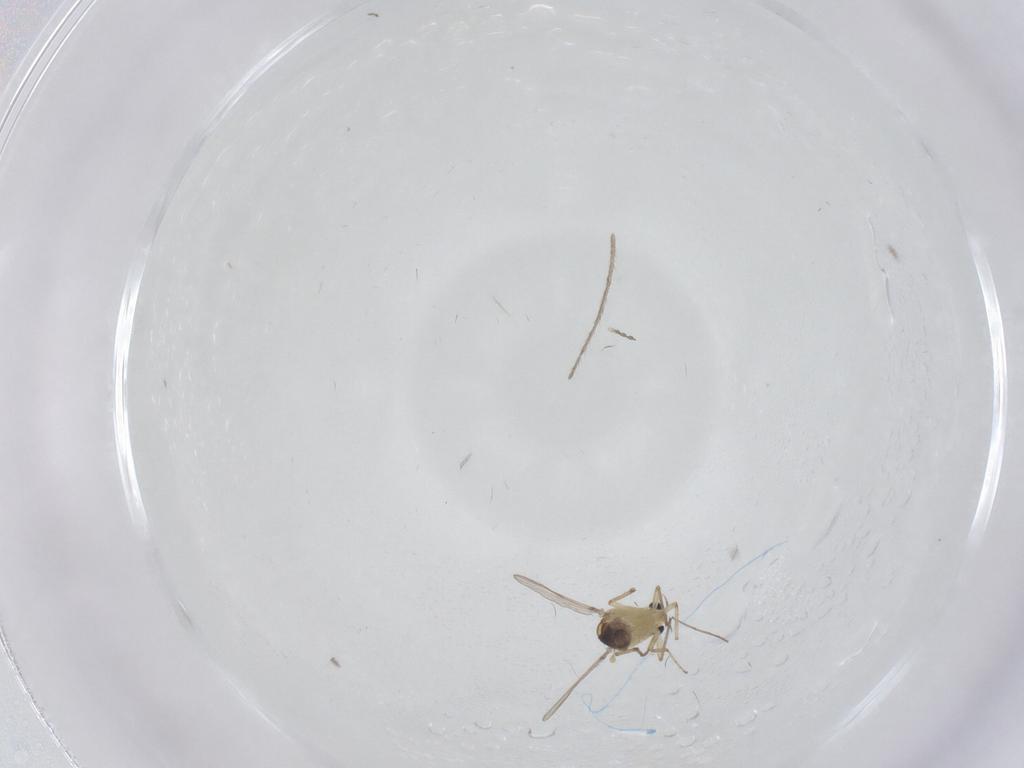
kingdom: Animalia
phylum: Arthropoda
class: Insecta
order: Diptera
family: Chironomidae
